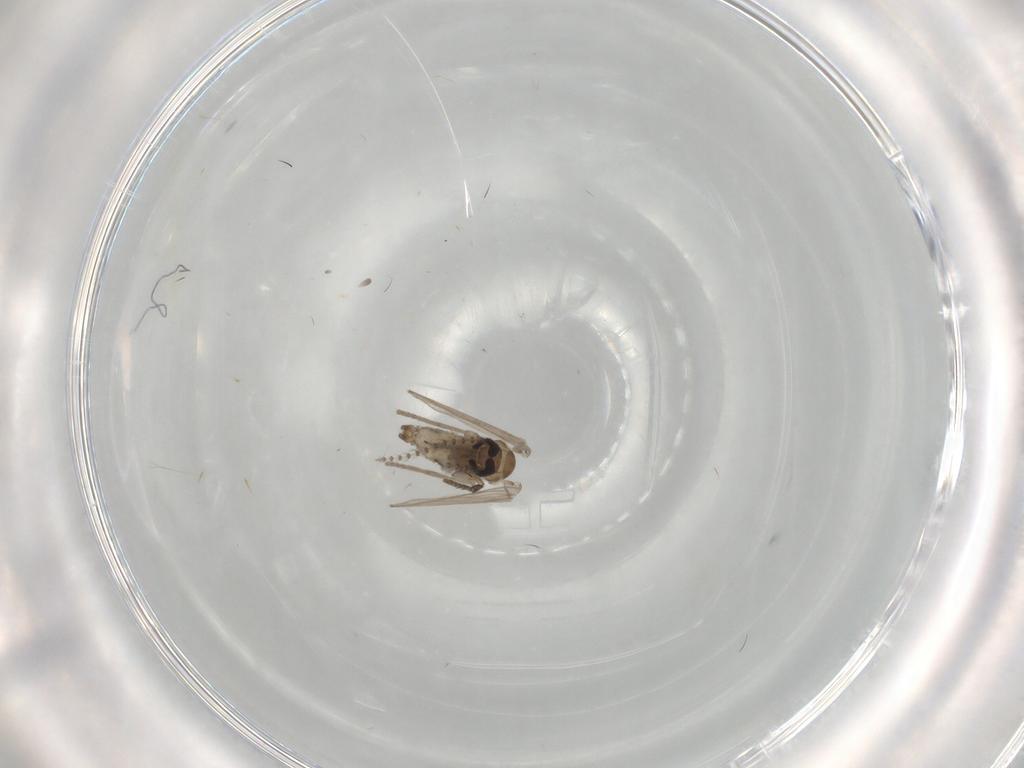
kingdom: Animalia
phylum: Arthropoda
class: Insecta
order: Diptera
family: Psychodidae
